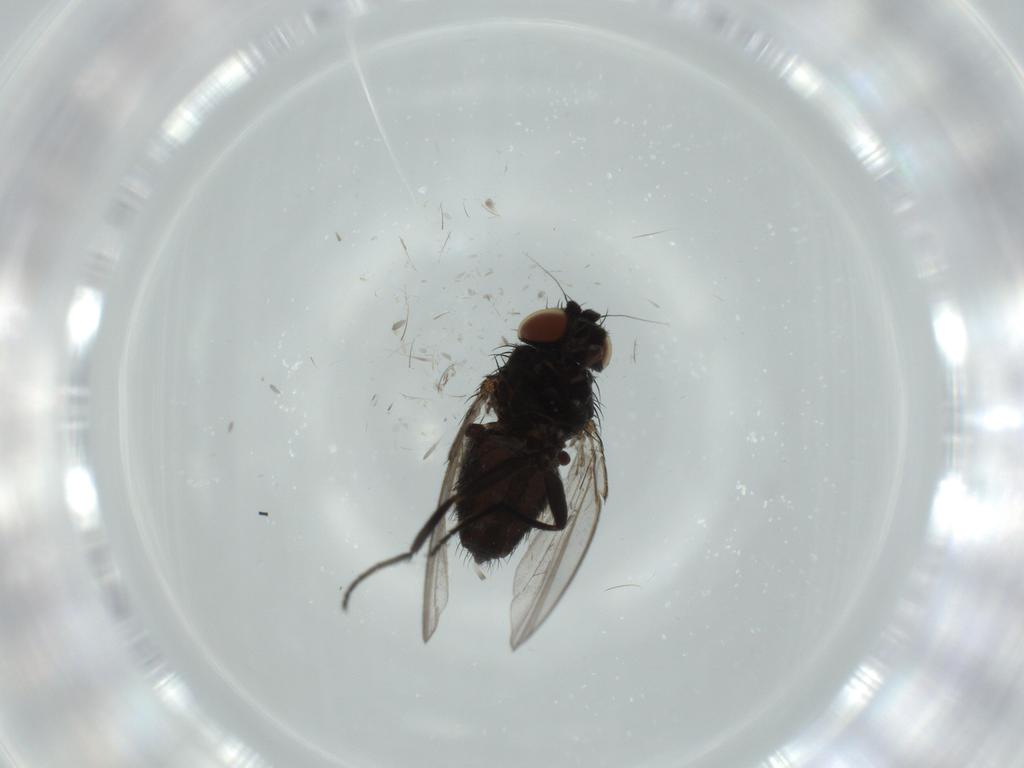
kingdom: Animalia
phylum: Arthropoda
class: Insecta
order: Diptera
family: Milichiidae
